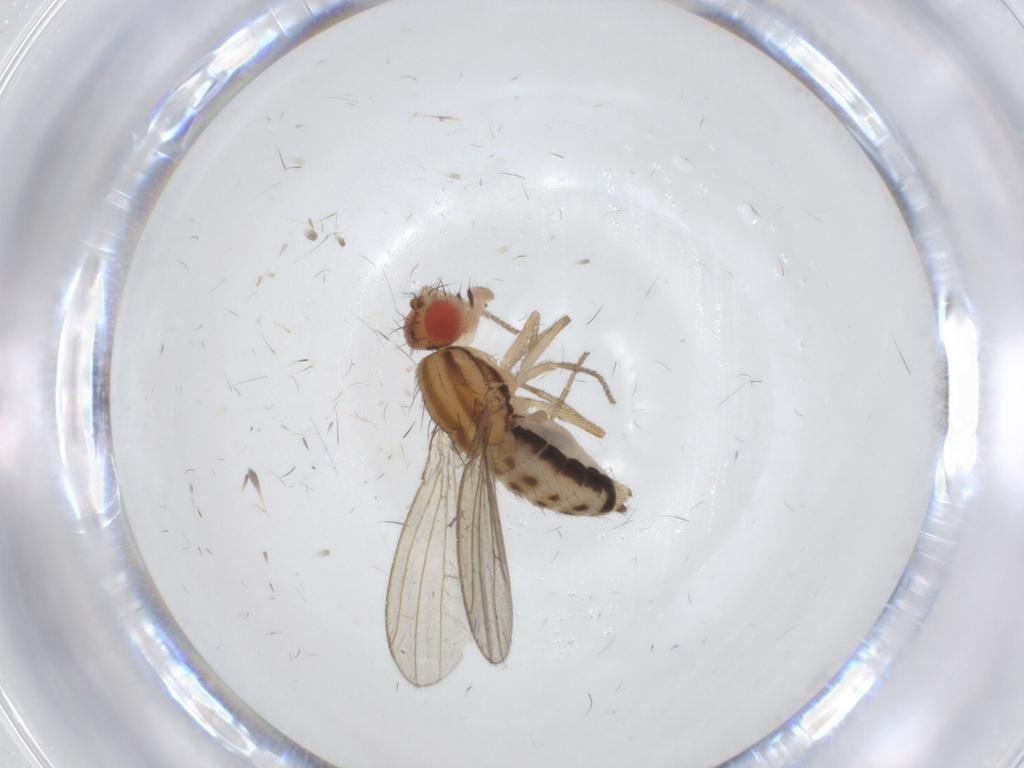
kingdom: Animalia
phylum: Arthropoda
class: Insecta
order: Diptera
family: Drosophilidae
